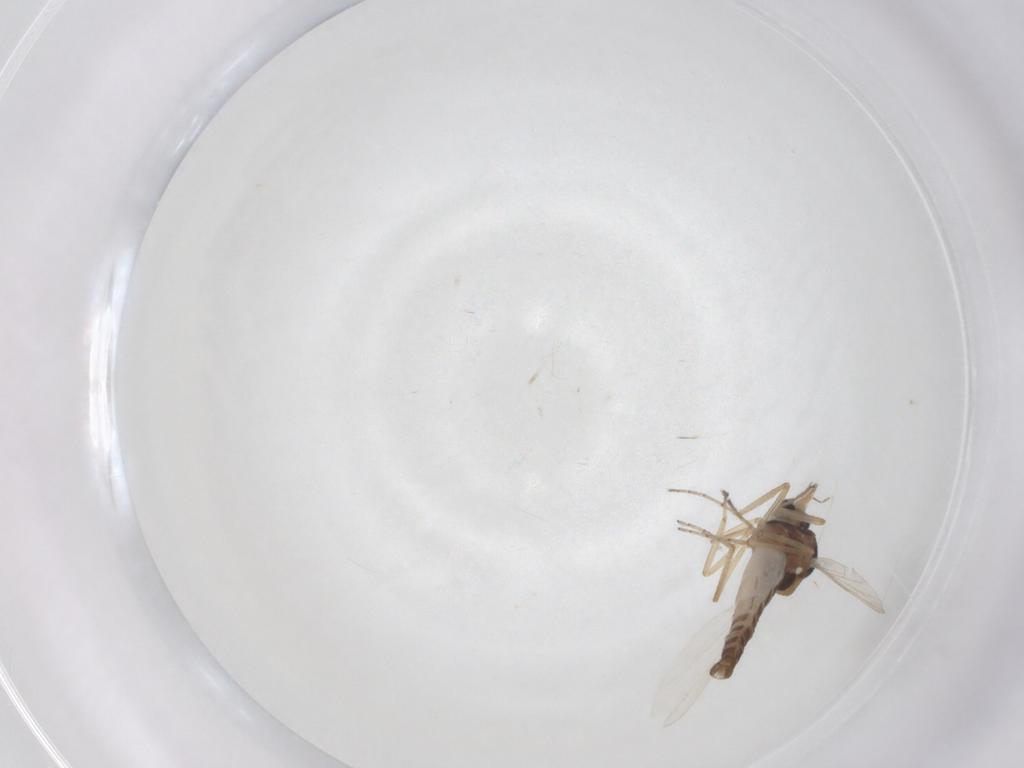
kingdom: Animalia
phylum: Arthropoda
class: Insecta
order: Diptera
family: Ceratopogonidae
